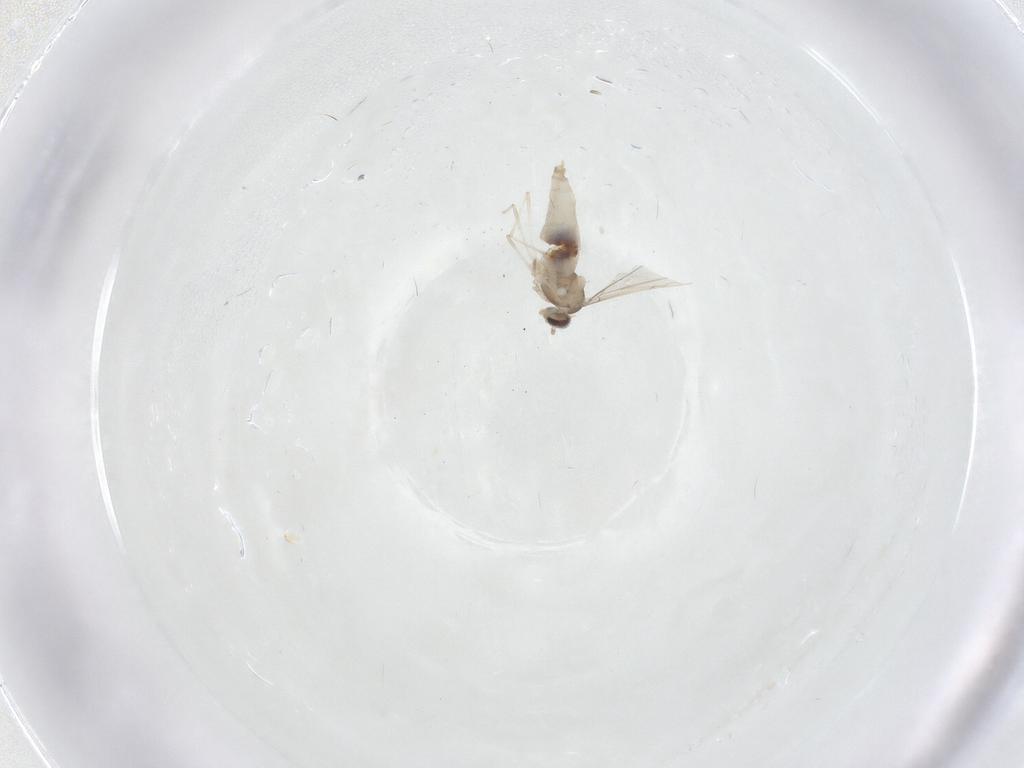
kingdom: Animalia
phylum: Arthropoda
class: Insecta
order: Diptera
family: Cecidomyiidae
